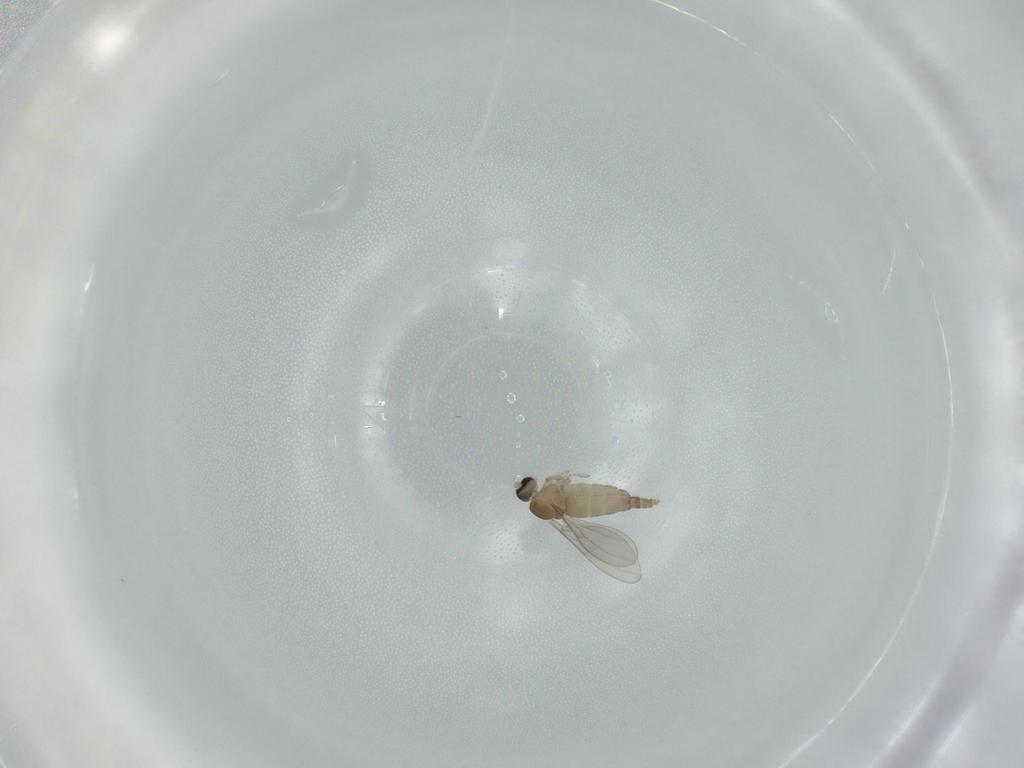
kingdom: Animalia
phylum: Arthropoda
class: Insecta
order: Diptera
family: Cecidomyiidae
